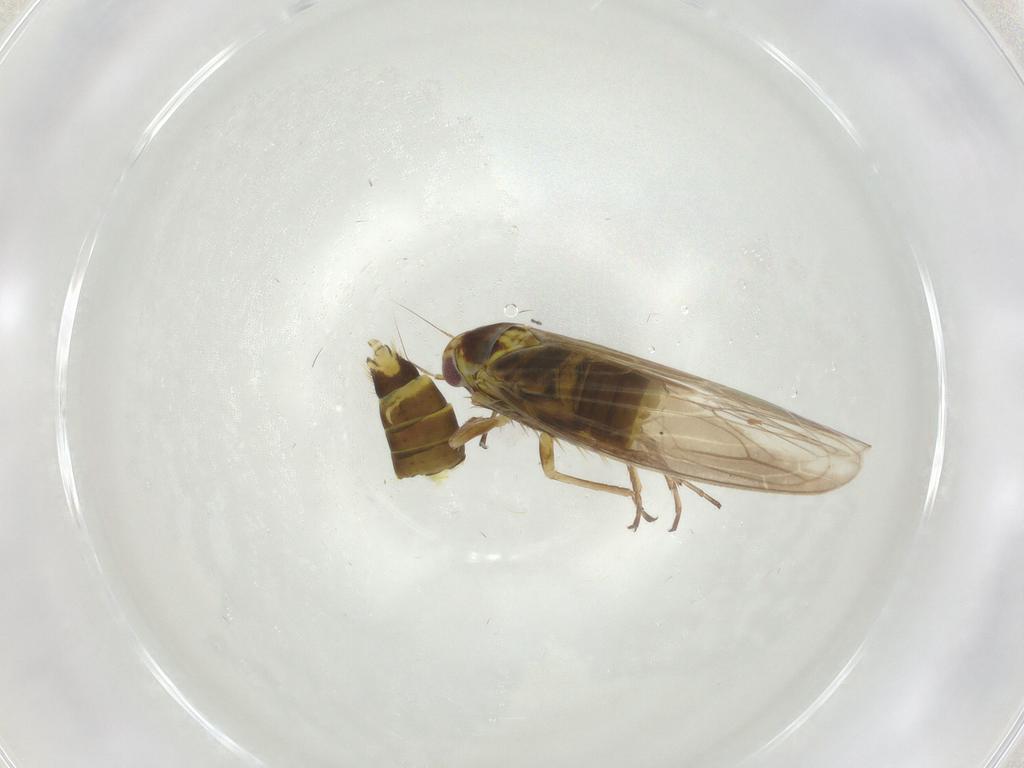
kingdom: Animalia
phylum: Arthropoda
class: Insecta
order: Hemiptera
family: Cicadellidae
